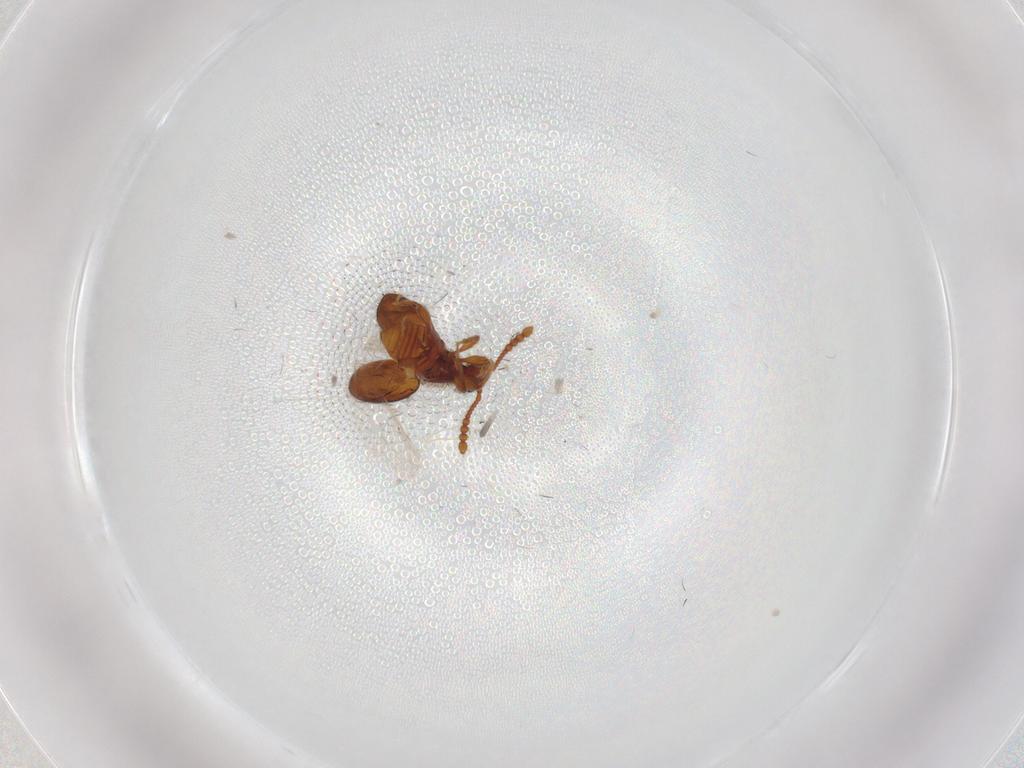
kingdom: Animalia
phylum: Arthropoda
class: Insecta
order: Coleoptera
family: Staphylinidae
